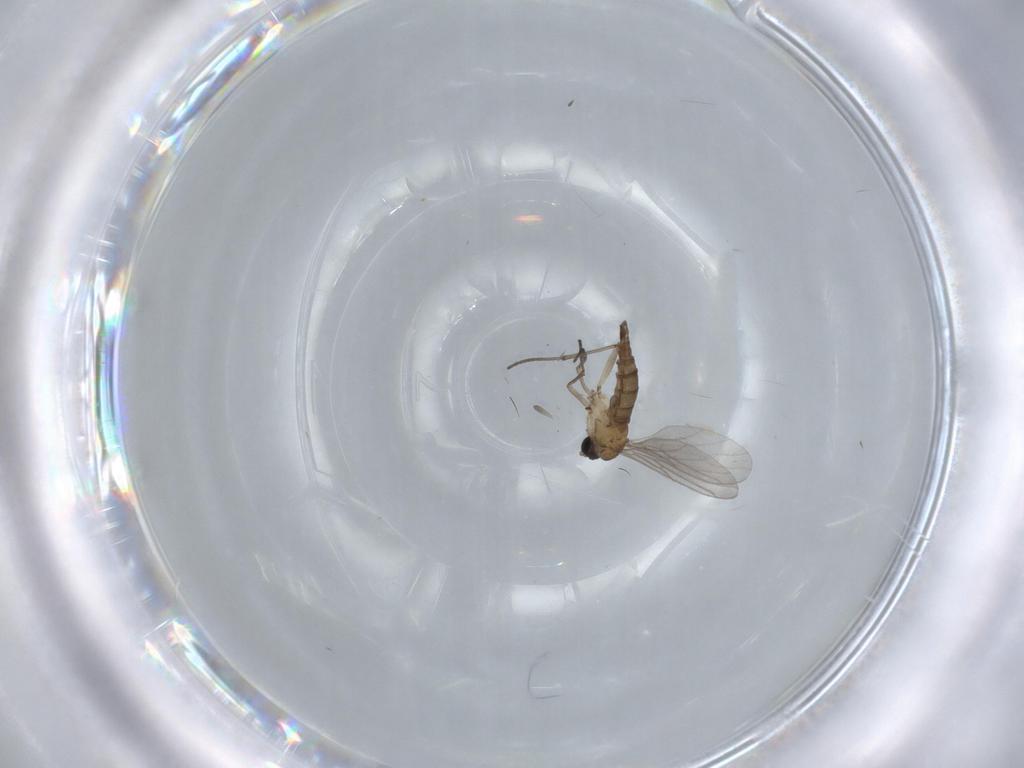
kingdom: Animalia
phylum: Arthropoda
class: Insecta
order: Diptera
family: Sciaridae
